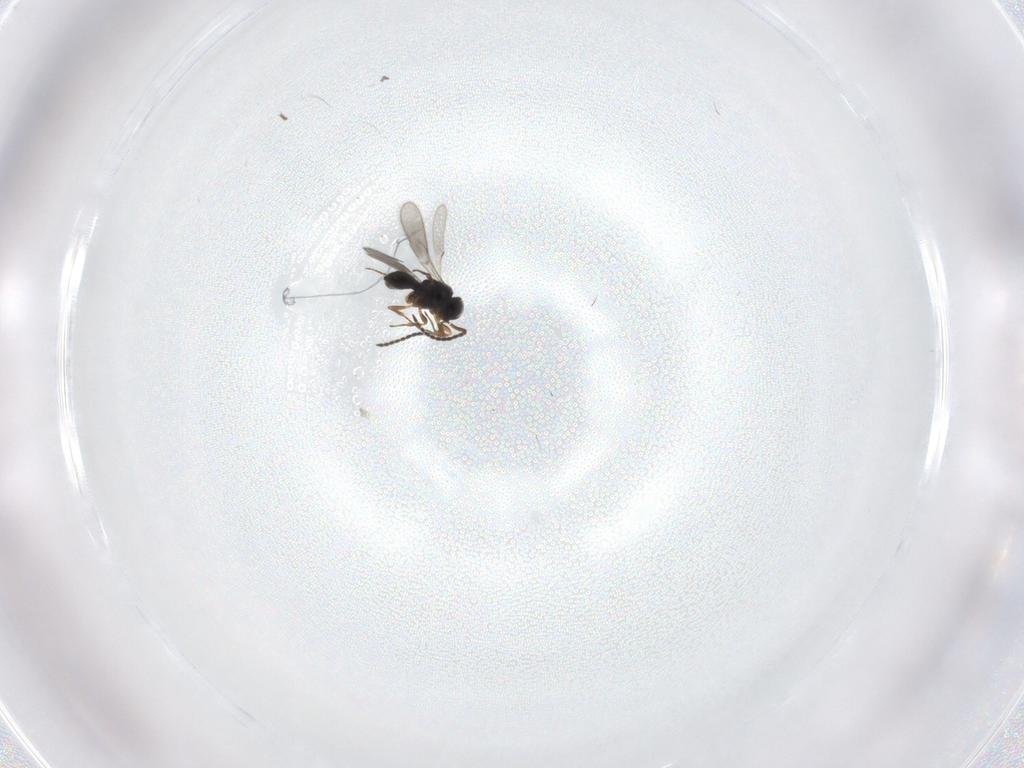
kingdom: Animalia
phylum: Arthropoda
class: Insecta
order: Hymenoptera
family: Scelionidae
